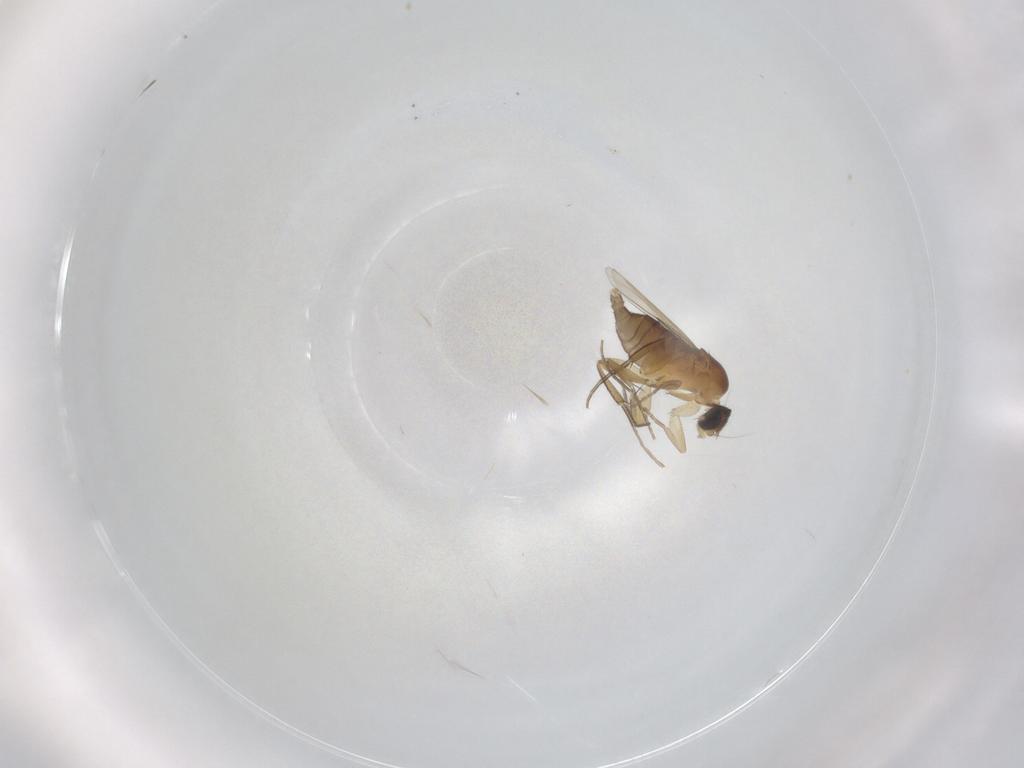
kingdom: Animalia
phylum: Arthropoda
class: Insecta
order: Diptera
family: Phoridae
